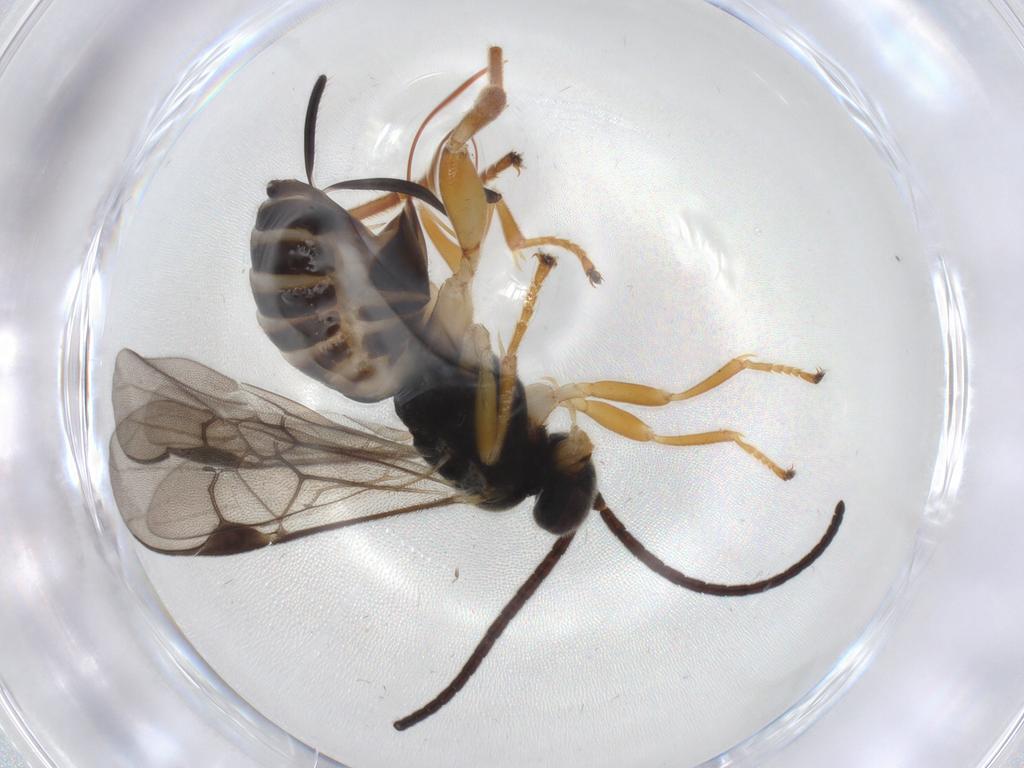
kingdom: Animalia
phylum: Arthropoda
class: Insecta
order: Hymenoptera
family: Braconidae
